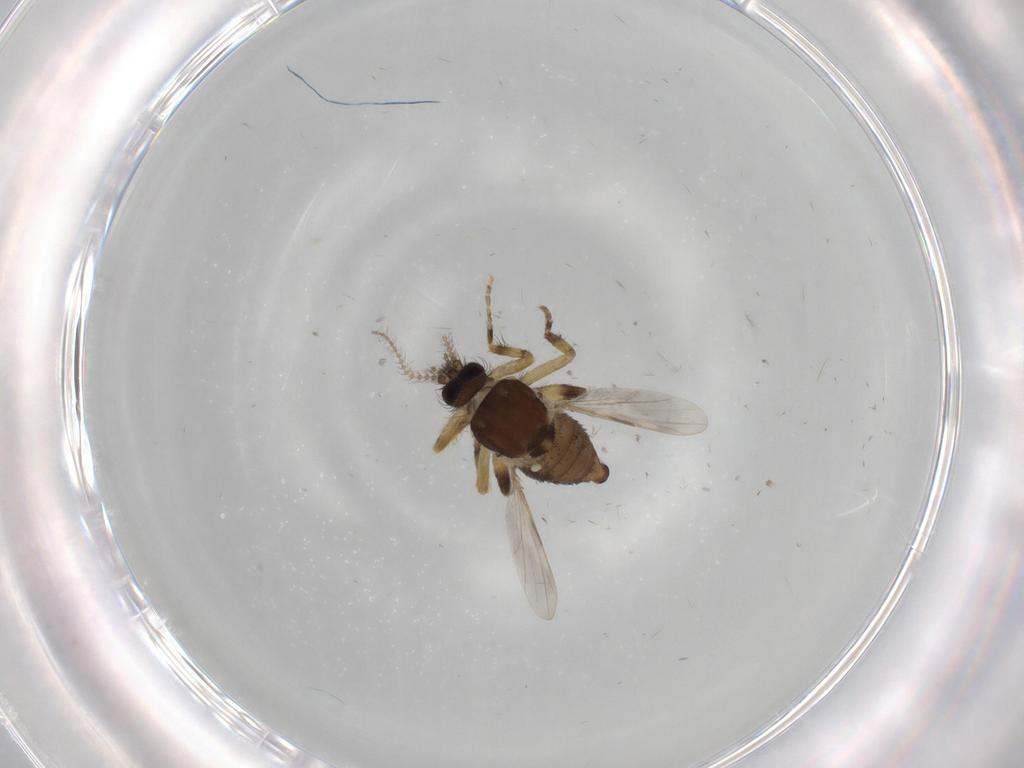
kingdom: Animalia
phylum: Arthropoda
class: Insecta
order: Diptera
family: Ceratopogonidae
